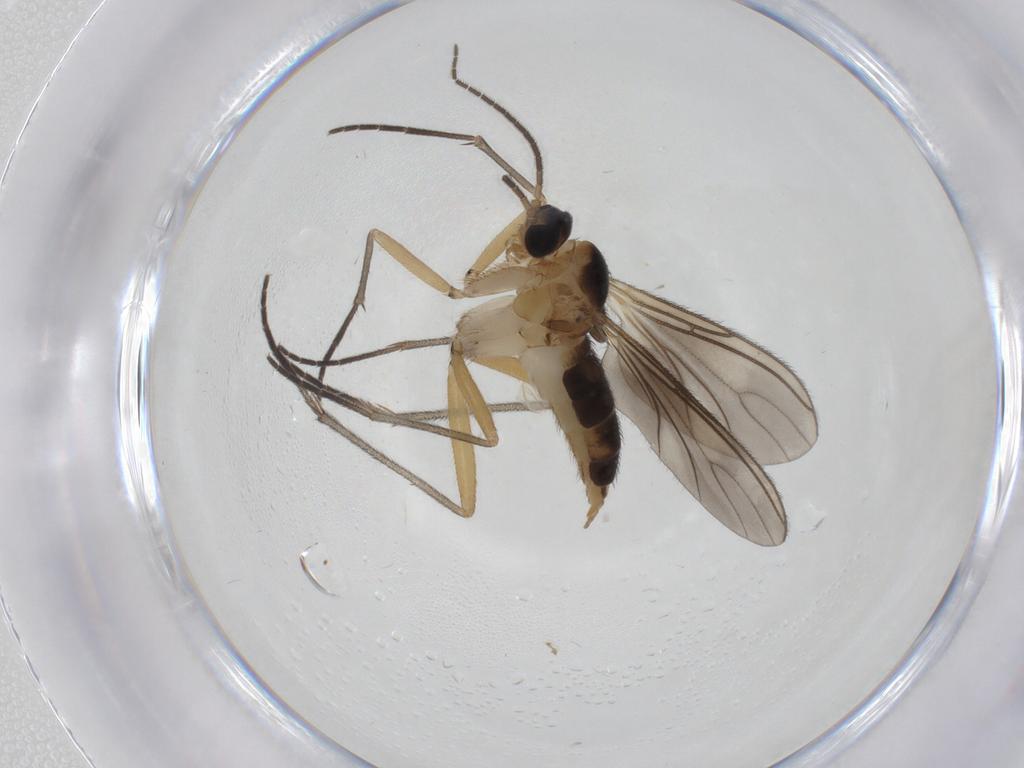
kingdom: Animalia
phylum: Arthropoda
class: Insecta
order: Diptera
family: Sciaridae
